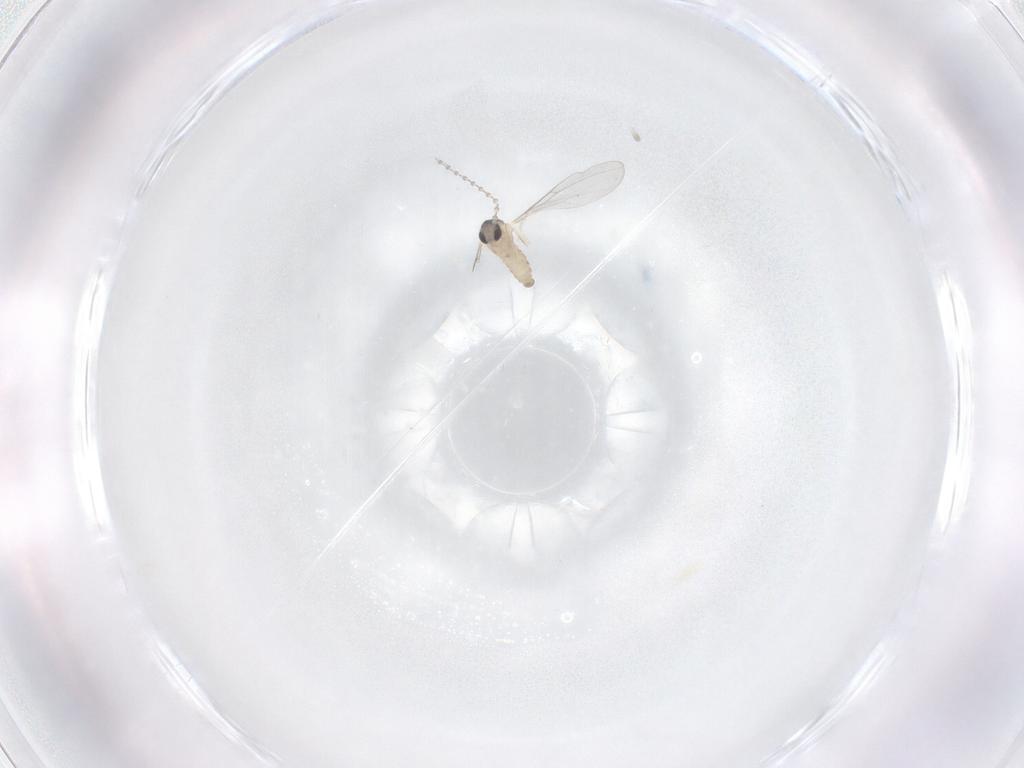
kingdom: Animalia
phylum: Arthropoda
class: Insecta
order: Diptera
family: Cecidomyiidae
